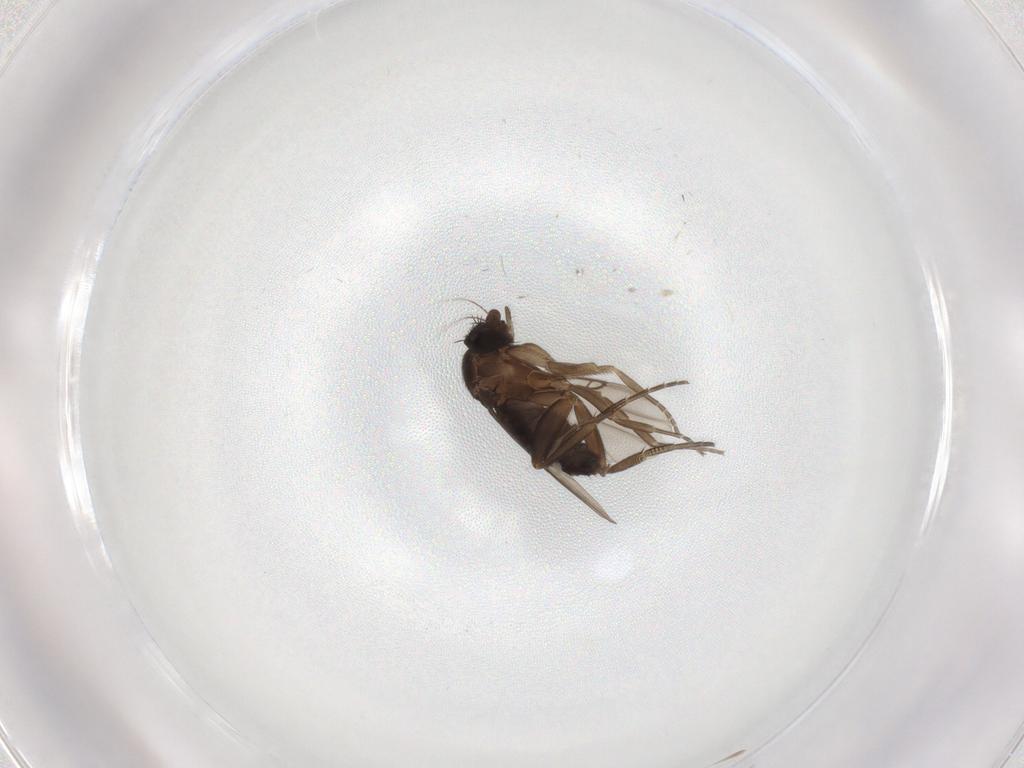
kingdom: Animalia
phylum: Arthropoda
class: Insecta
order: Diptera
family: Phoridae
